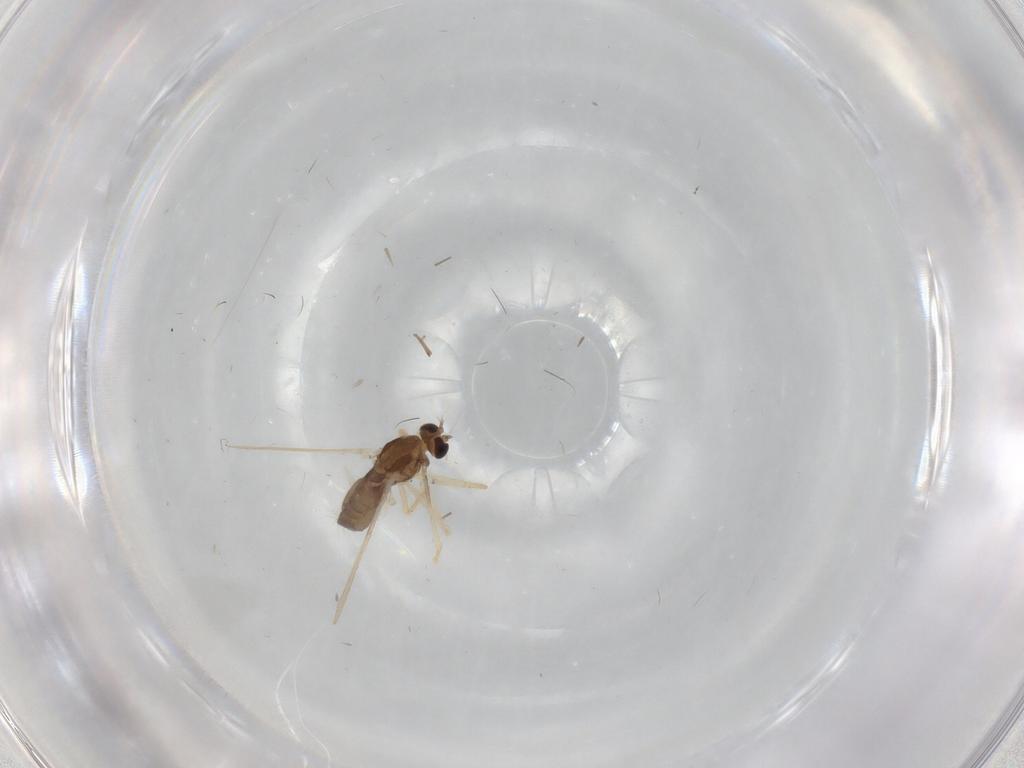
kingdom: Animalia
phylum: Arthropoda
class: Insecta
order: Diptera
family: Chironomidae
